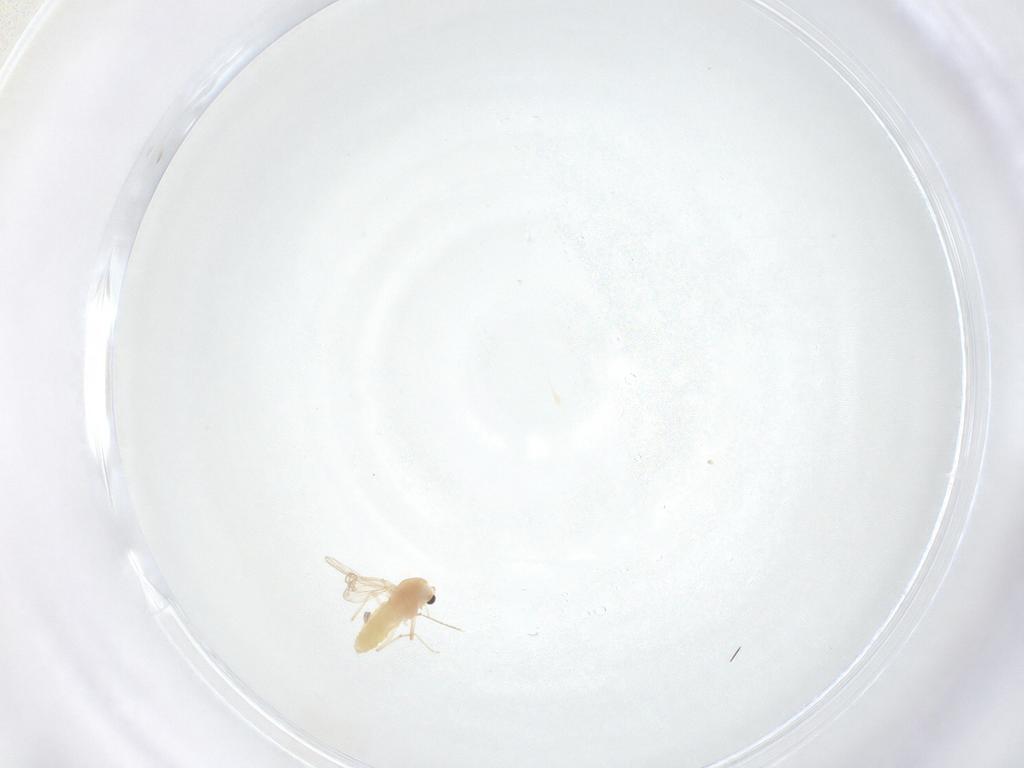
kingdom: Animalia
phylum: Arthropoda
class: Insecta
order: Diptera
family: Chironomidae
